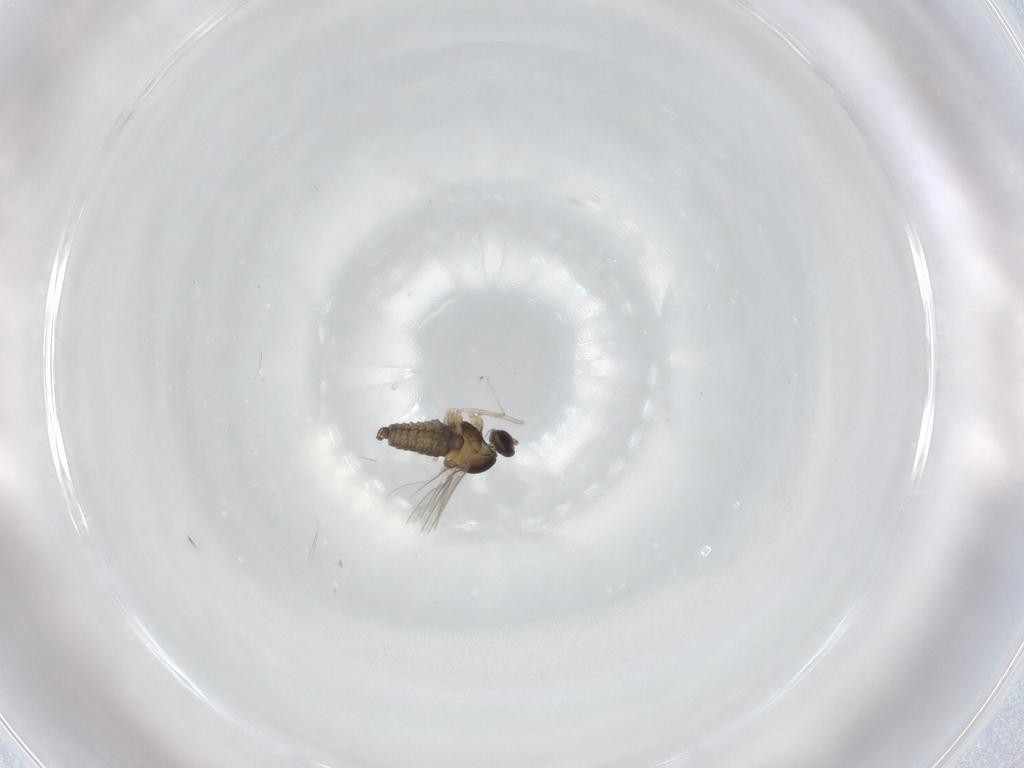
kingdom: Animalia
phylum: Arthropoda
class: Insecta
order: Diptera
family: Cecidomyiidae
